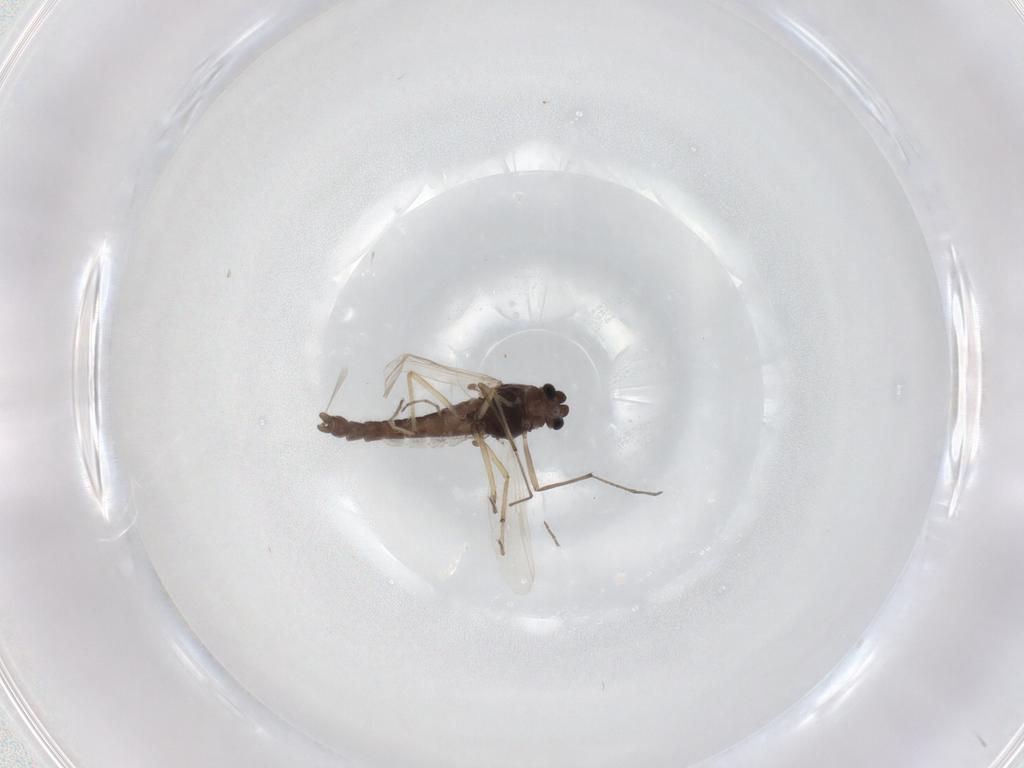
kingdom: Animalia
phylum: Arthropoda
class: Insecta
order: Diptera
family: Chironomidae
